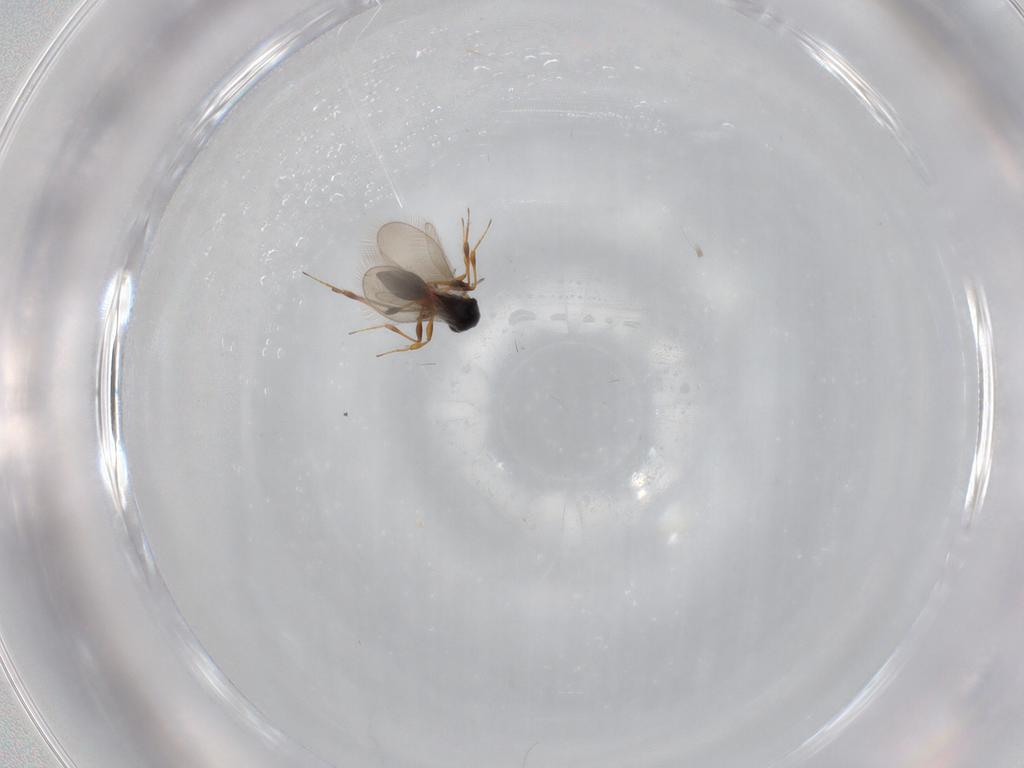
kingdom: Animalia
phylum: Arthropoda
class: Insecta
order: Hymenoptera
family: Platygastridae
